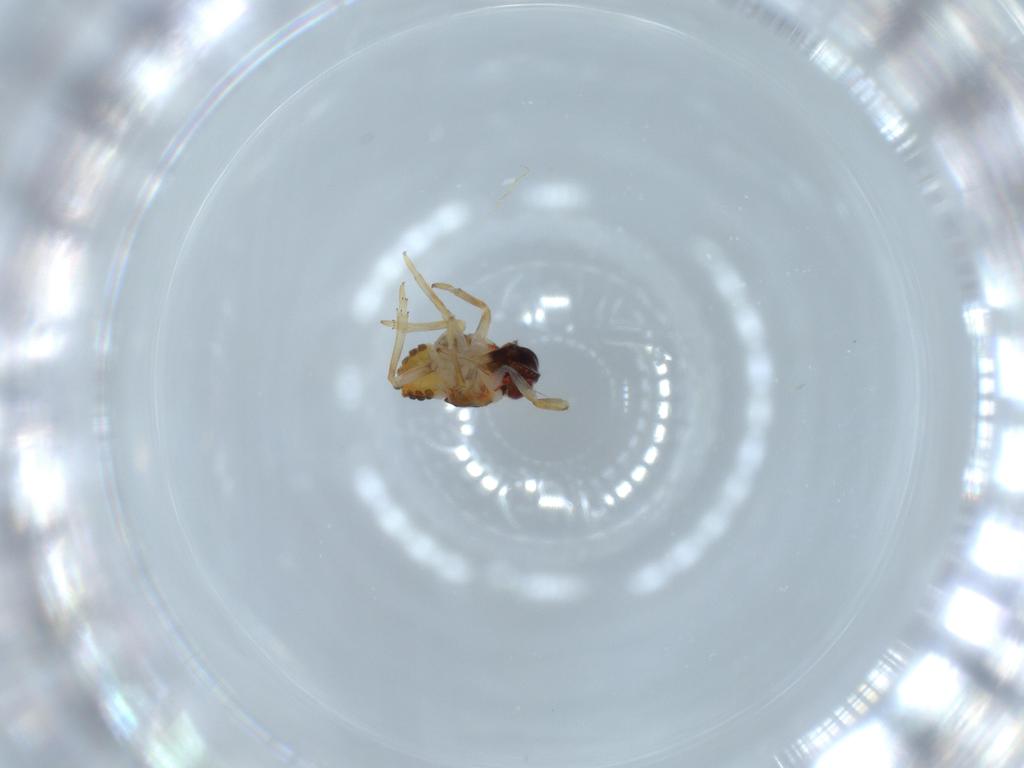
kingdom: Animalia
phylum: Arthropoda
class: Insecta
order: Hemiptera
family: Issidae
